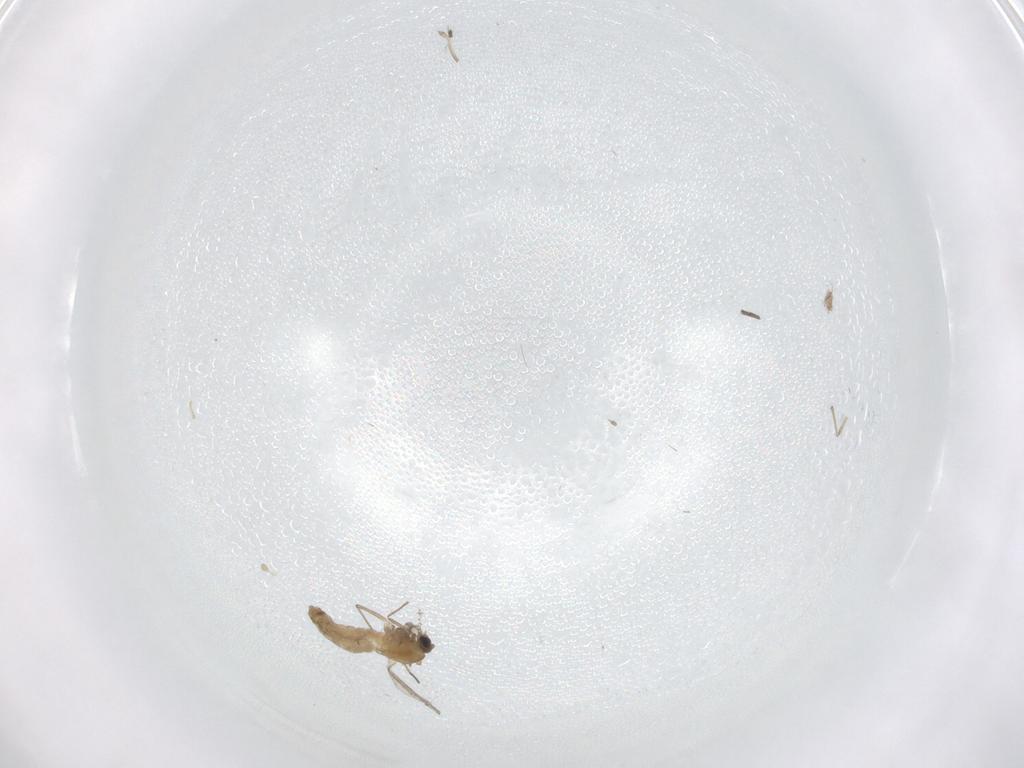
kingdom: Animalia
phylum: Arthropoda
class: Insecta
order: Diptera
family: Cecidomyiidae
